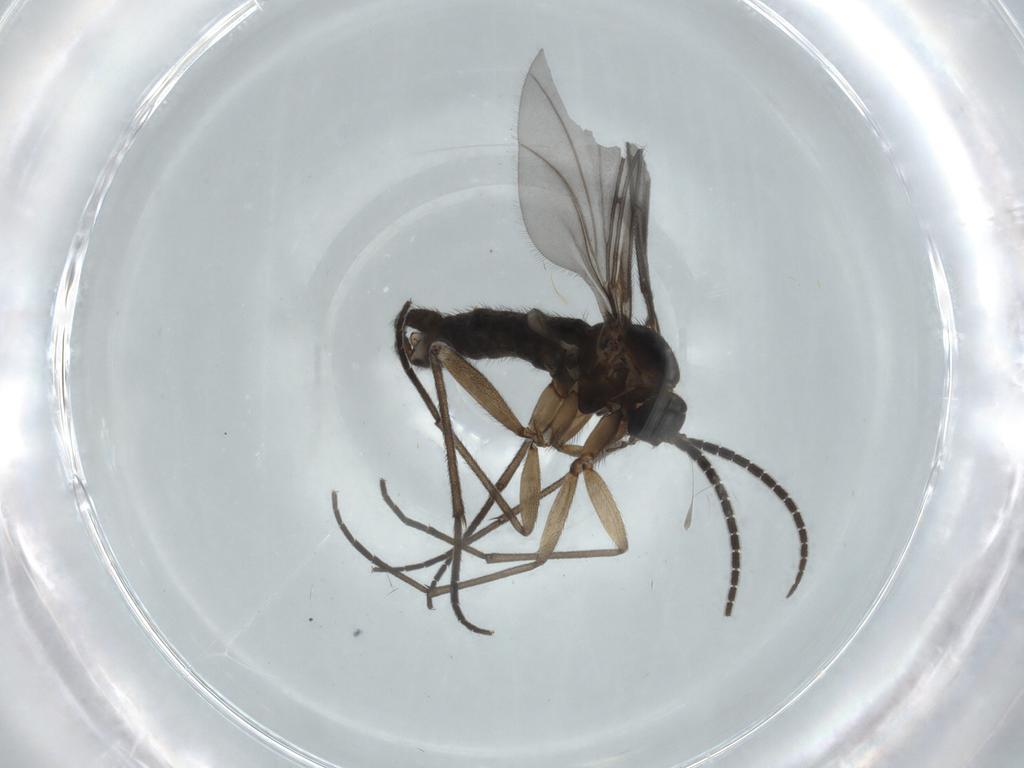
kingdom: Animalia
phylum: Arthropoda
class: Insecta
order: Diptera
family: Sciaridae
